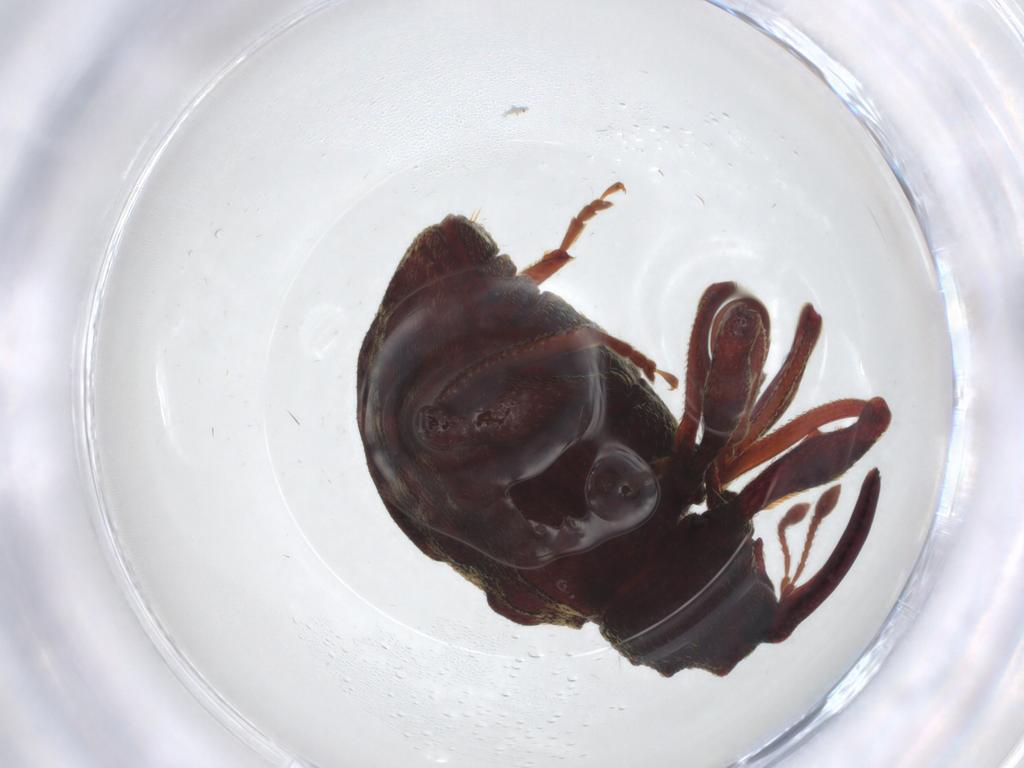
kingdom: Animalia
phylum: Arthropoda
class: Insecta
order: Coleoptera
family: Curculionidae
